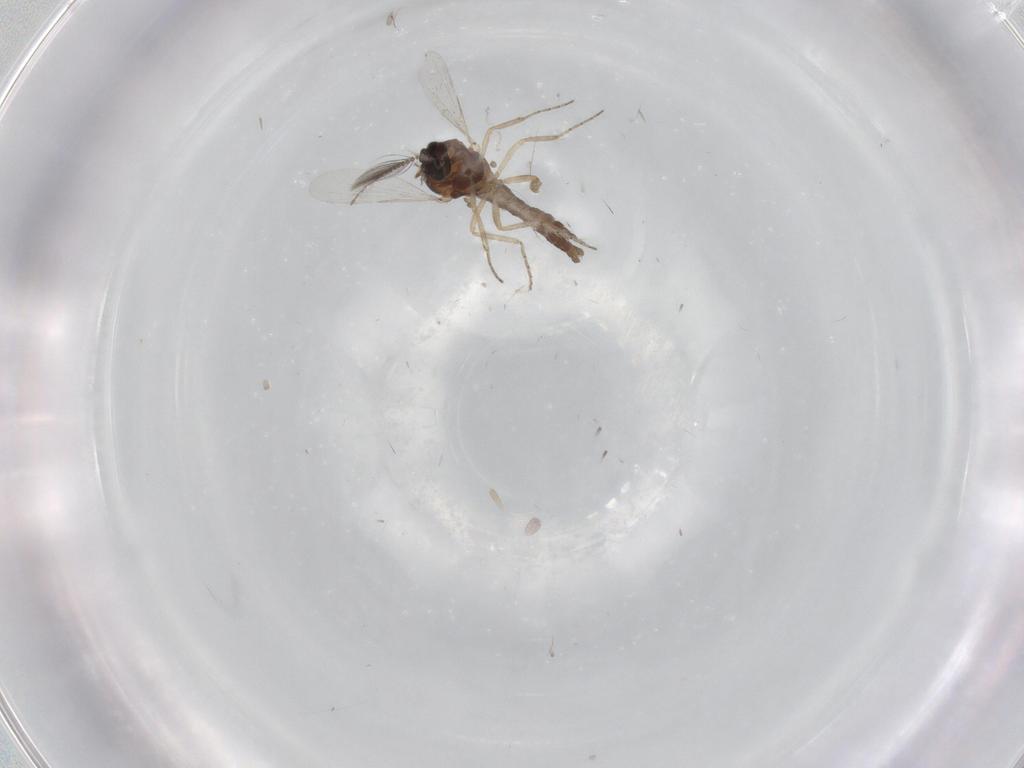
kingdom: Animalia
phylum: Arthropoda
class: Insecta
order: Diptera
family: Ceratopogonidae
